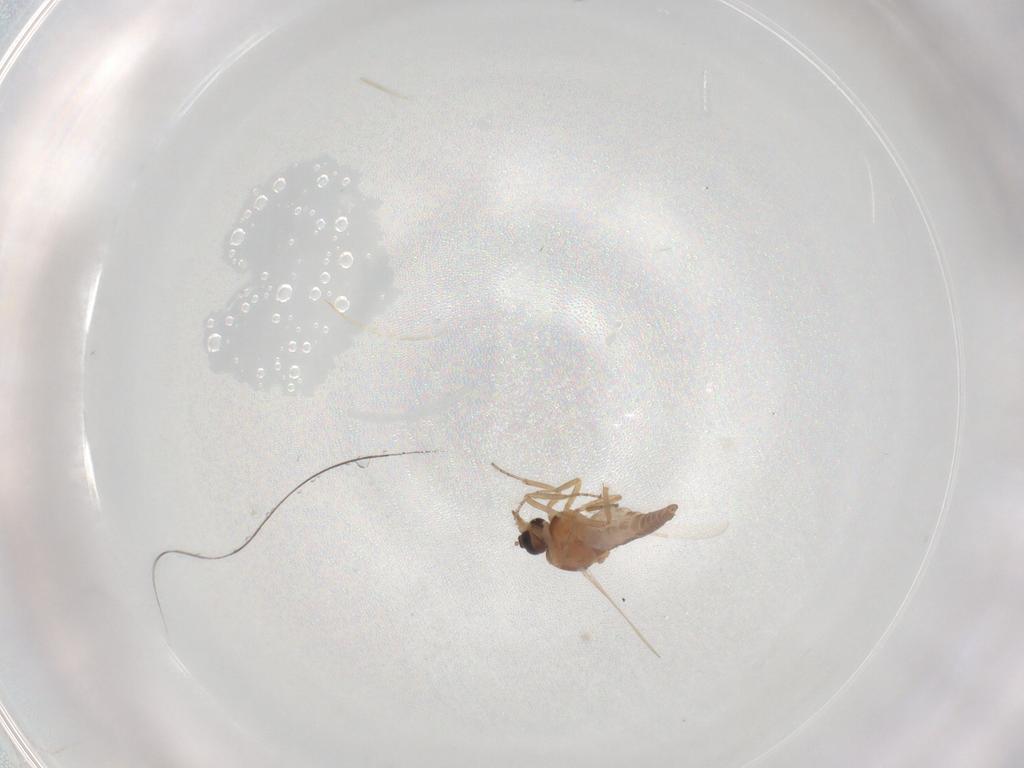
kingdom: Animalia
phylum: Arthropoda
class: Insecta
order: Diptera
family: Ceratopogonidae
